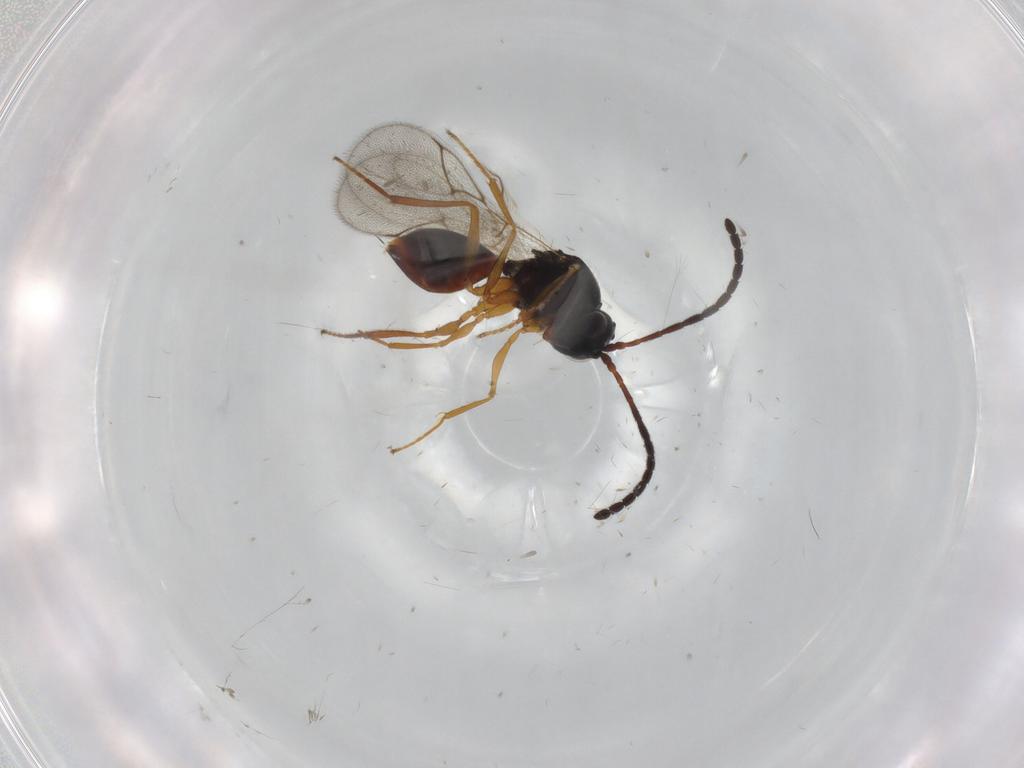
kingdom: Animalia
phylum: Arthropoda
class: Insecta
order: Hymenoptera
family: Figitidae
